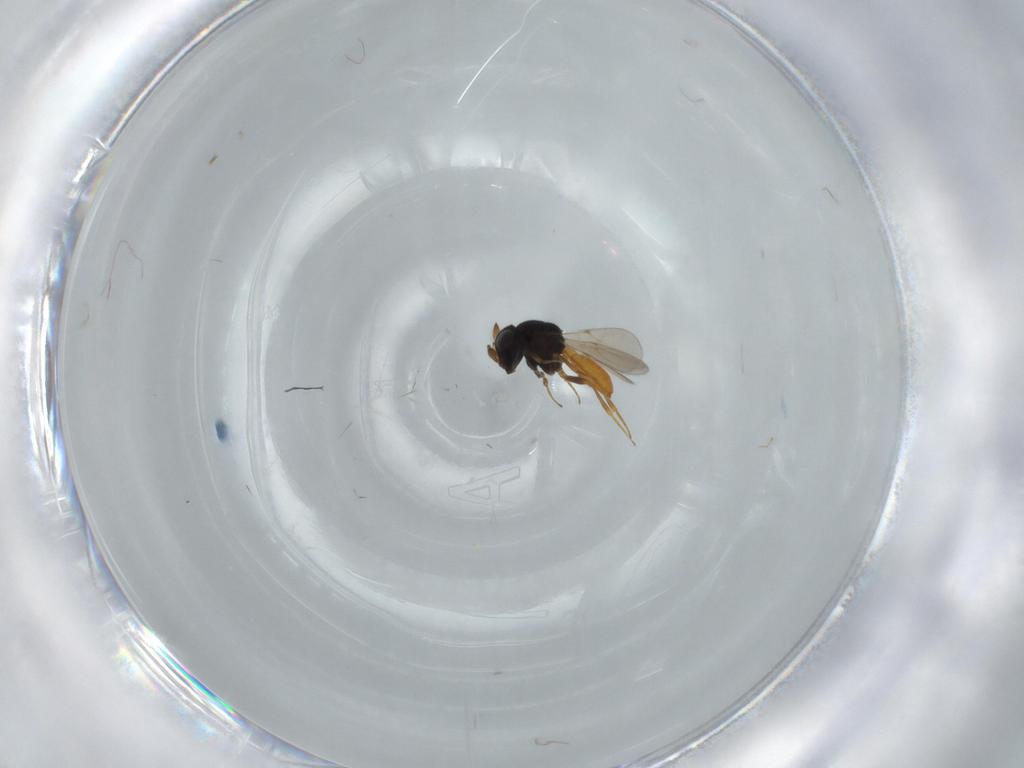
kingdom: Animalia
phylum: Arthropoda
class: Insecta
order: Hymenoptera
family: Scelionidae
